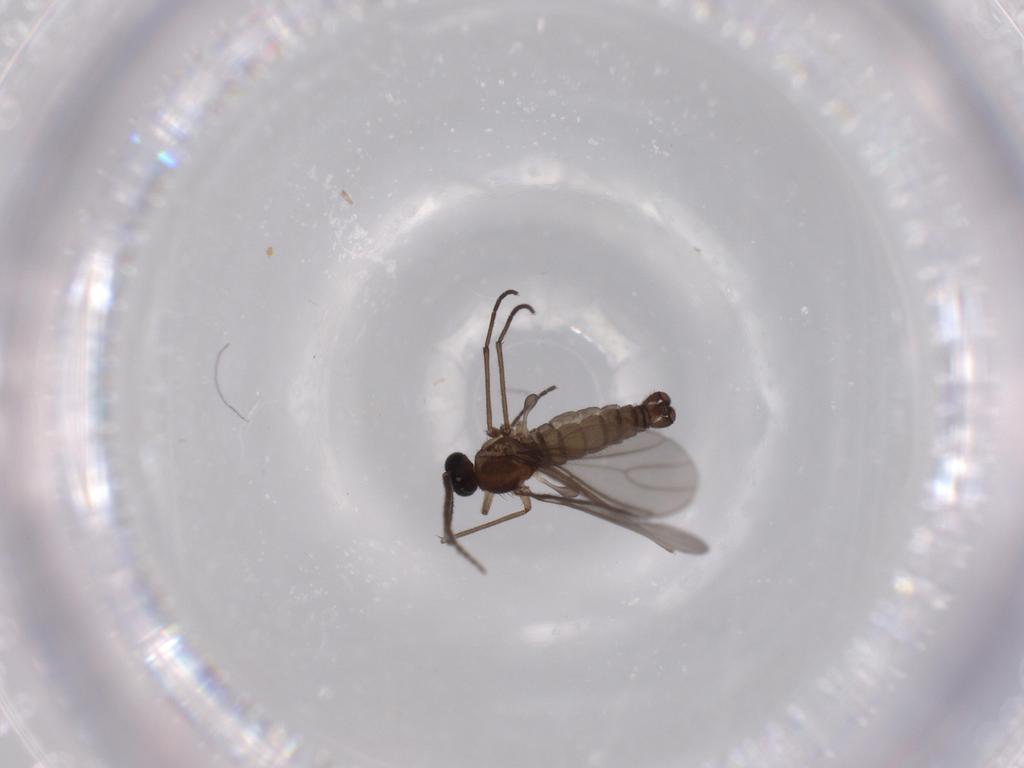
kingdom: Animalia
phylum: Arthropoda
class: Insecta
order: Diptera
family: Sciaridae
